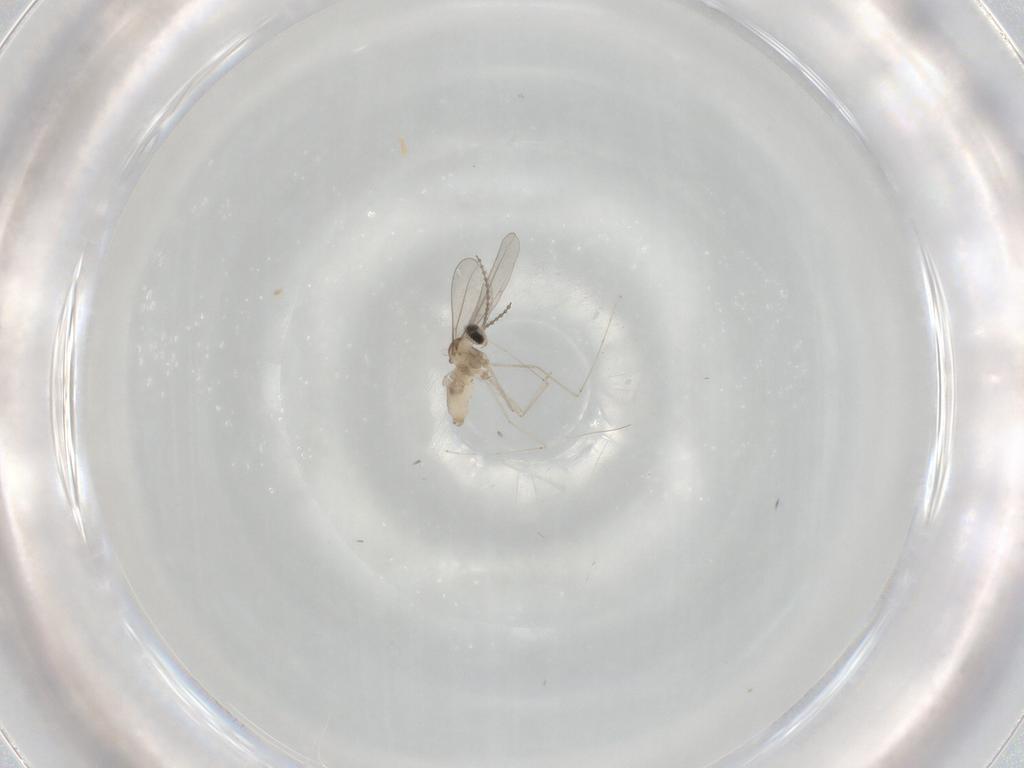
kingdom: Animalia
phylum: Arthropoda
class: Insecta
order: Diptera
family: Cecidomyiidae
